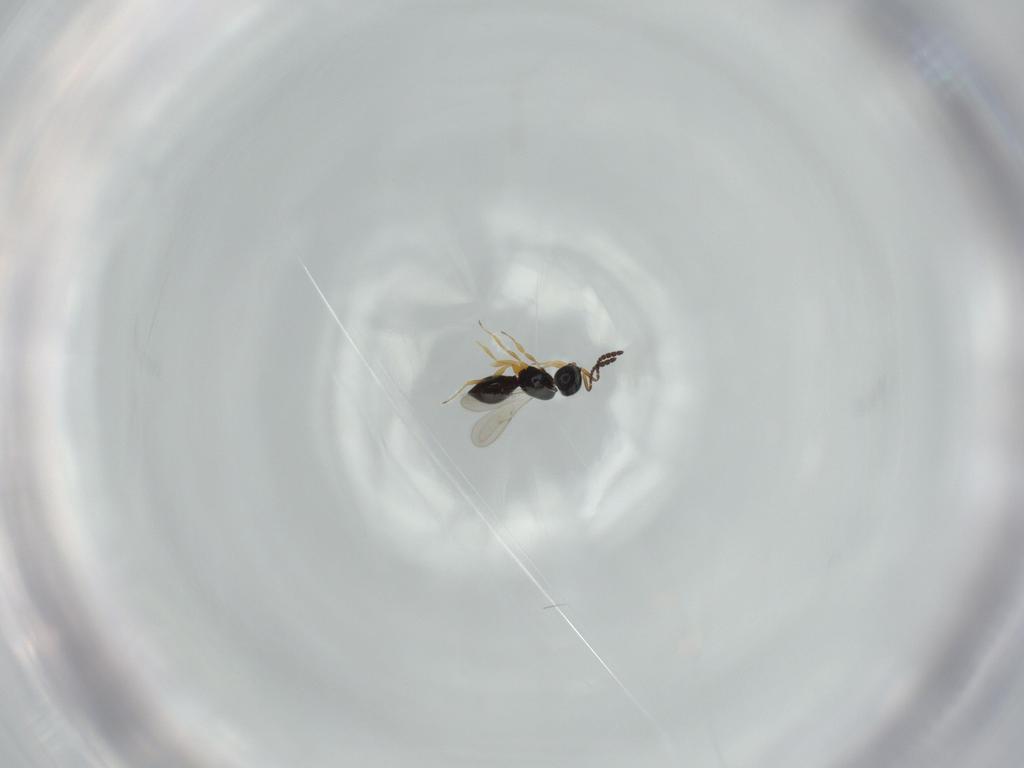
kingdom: Animalia
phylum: Arthropoda
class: Insecta
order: Hymenoptera
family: Scelionidae
